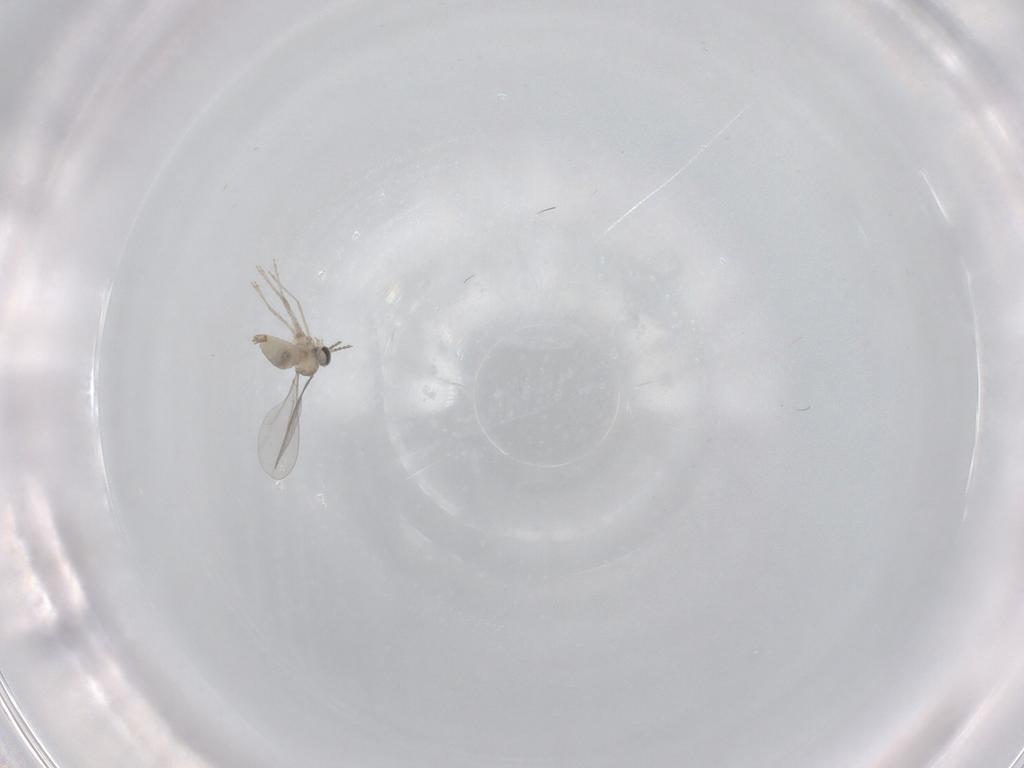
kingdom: Animalia
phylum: Arthropoda
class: Insecta
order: Diptera
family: Cecidomyiidae
